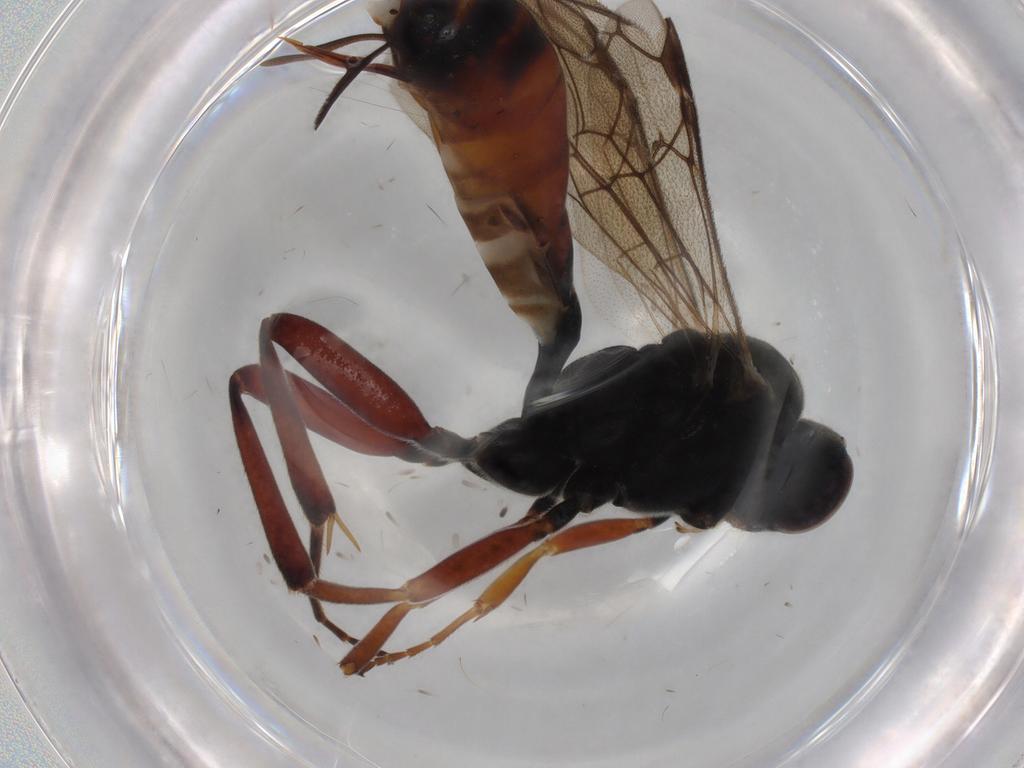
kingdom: Animalia
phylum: Arthropoda
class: Insecta
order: Hymenoptera
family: Ichneumonidae
